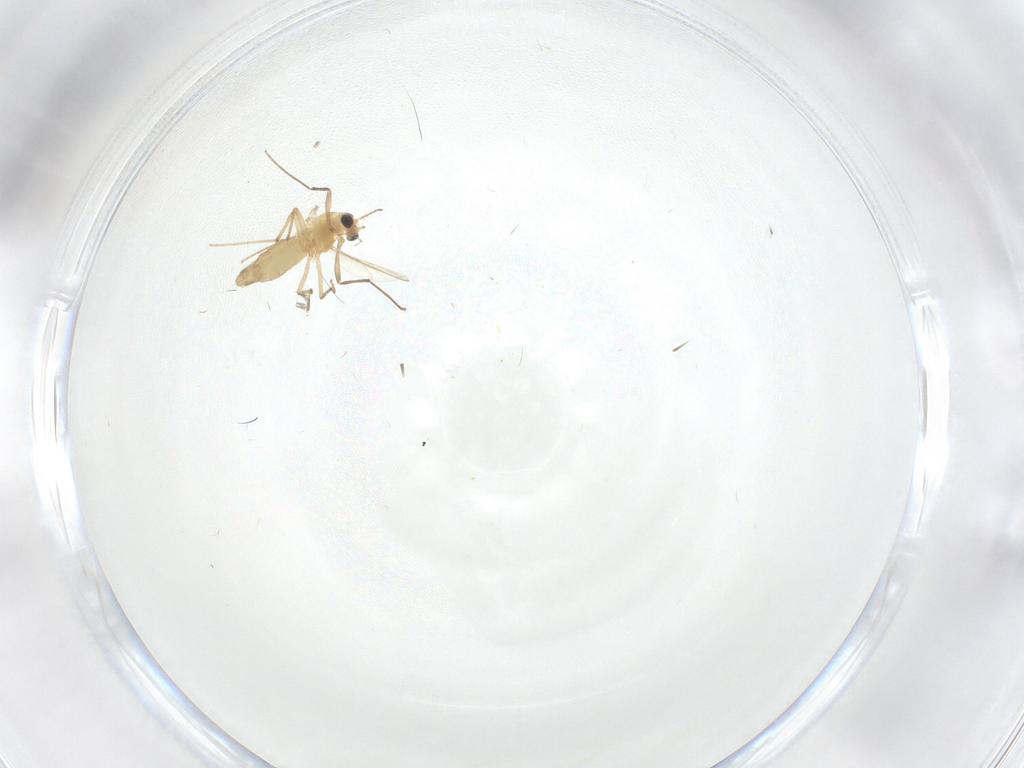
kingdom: Animalia
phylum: Arthropoda
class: Insecta
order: Diptera
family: Chironomidae
